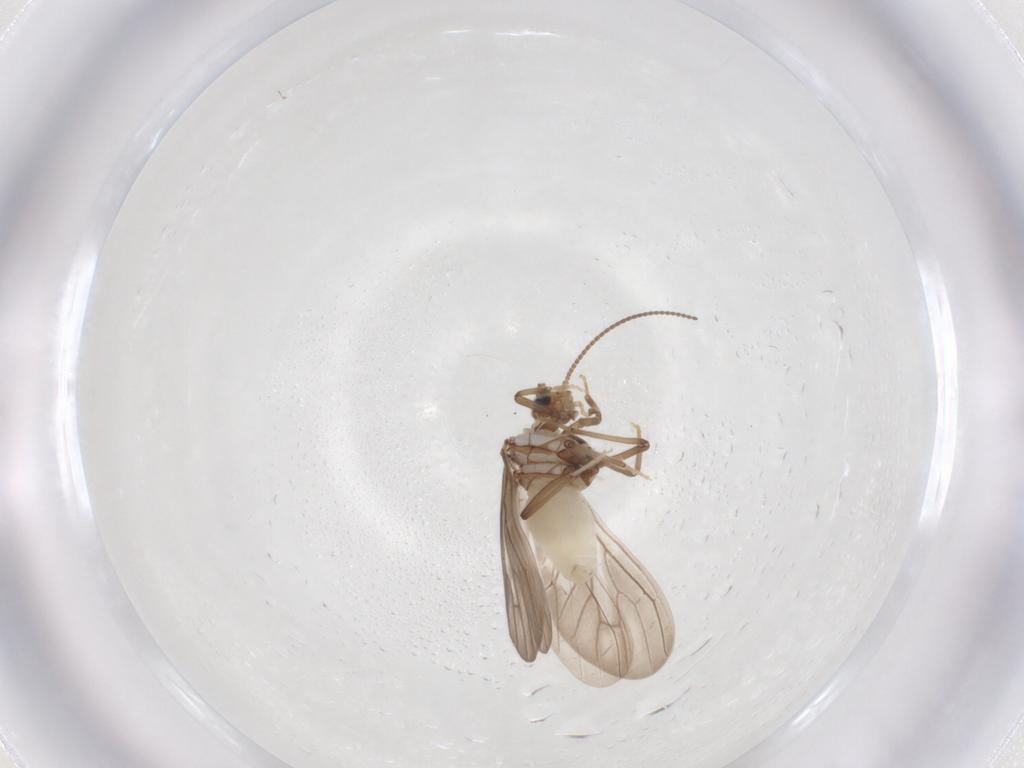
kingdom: Animalia
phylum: Arthropoda
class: Insecta
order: Neuroptera
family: Coniopterygidae
